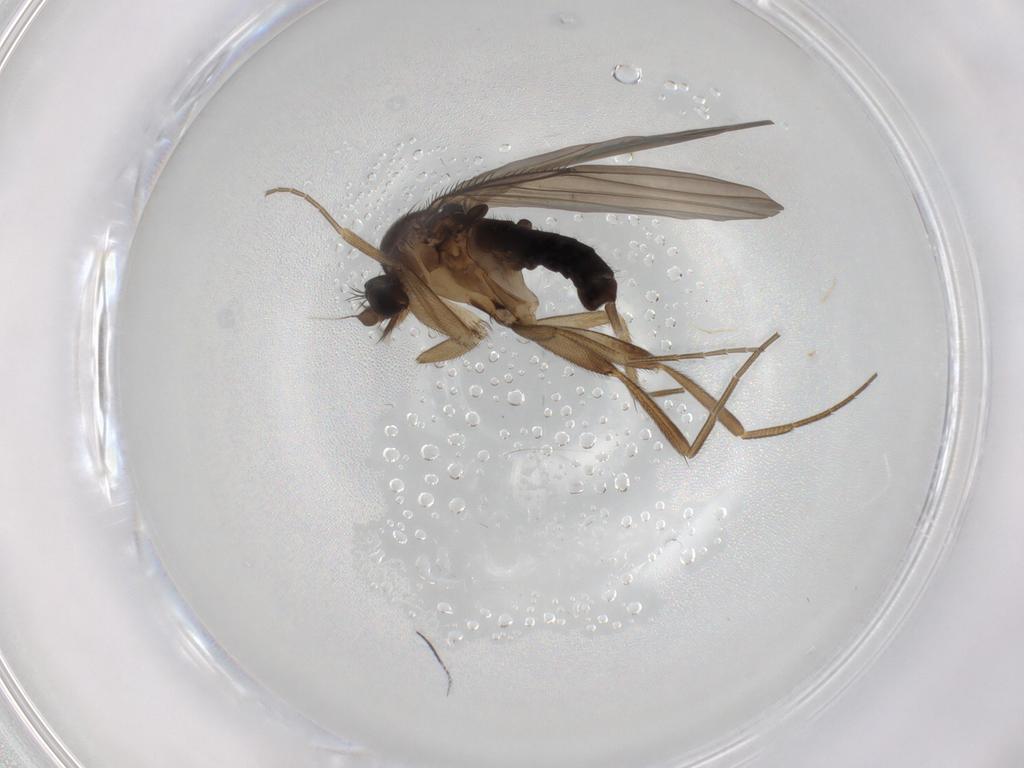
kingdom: Animalia
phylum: Arthropoda
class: Insecta
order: Diptera
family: Phoridae
